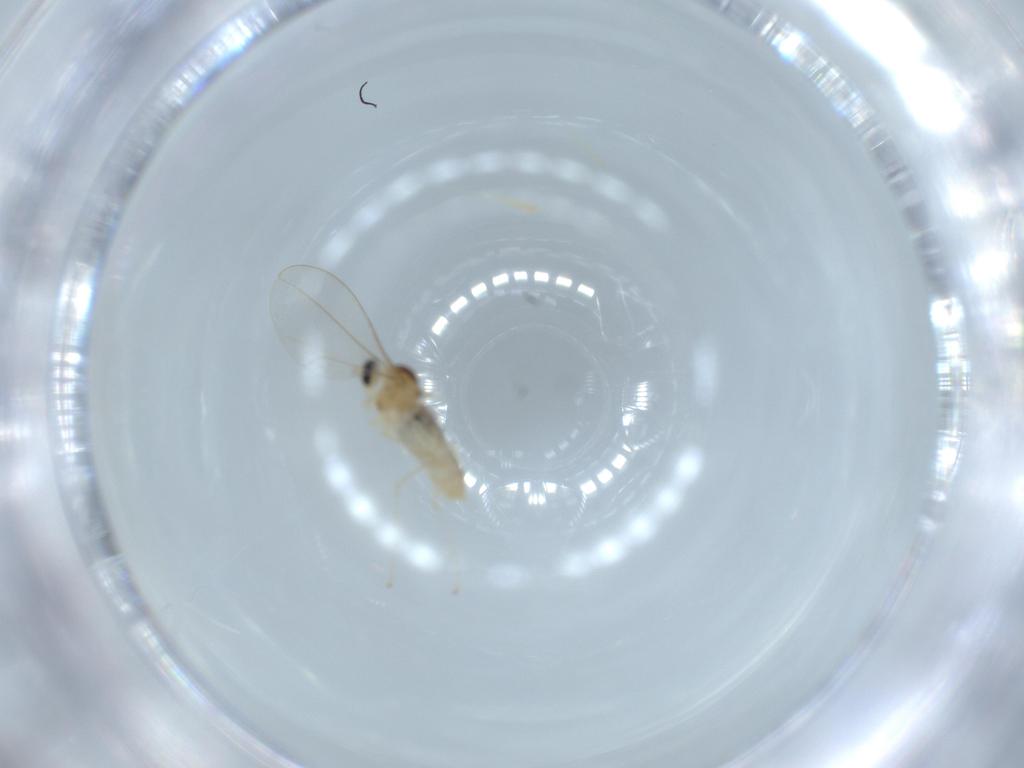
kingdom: Animalia
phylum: Arthropoda
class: Insecta
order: Diptera
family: Cecidomyiidae
